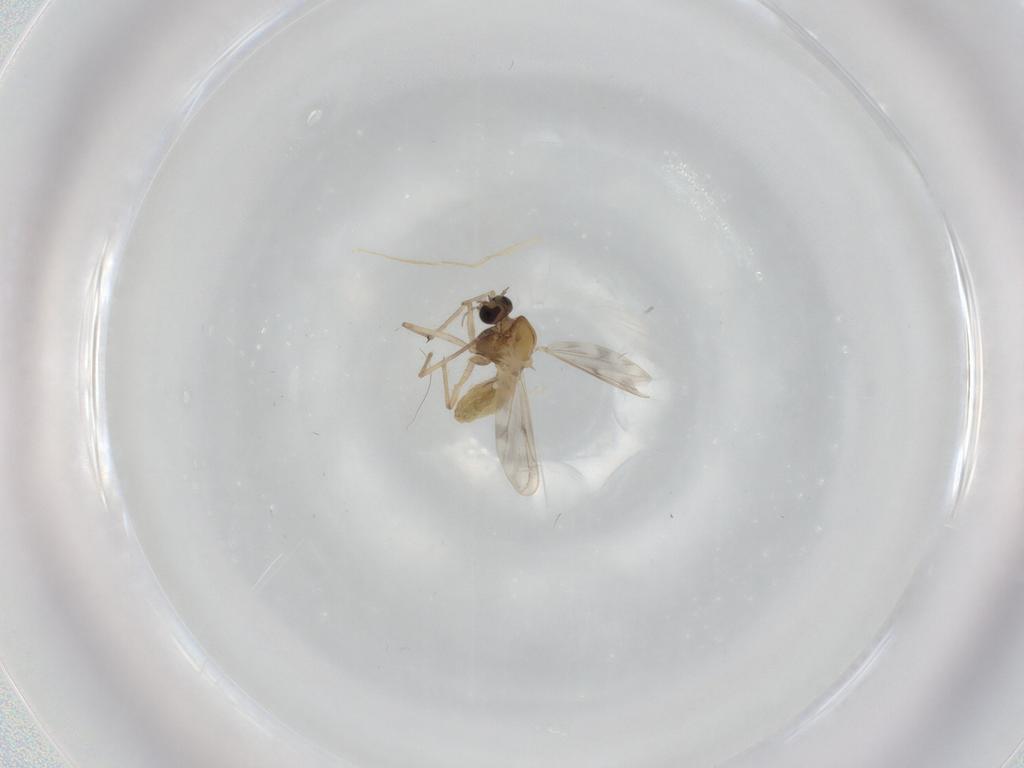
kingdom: Animalia
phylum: Arthropoda
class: Insecta
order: Diptera
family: Chironomidae
